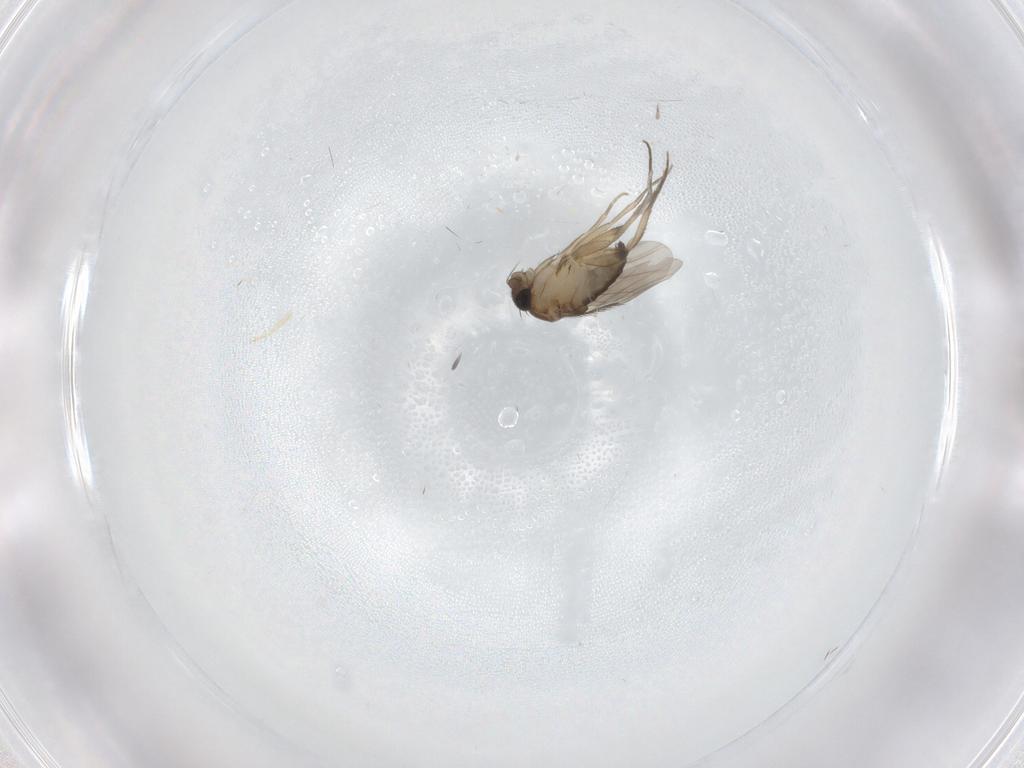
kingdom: Animalia
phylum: Arthropoda
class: Insecta
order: Diptera
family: Phoridae
